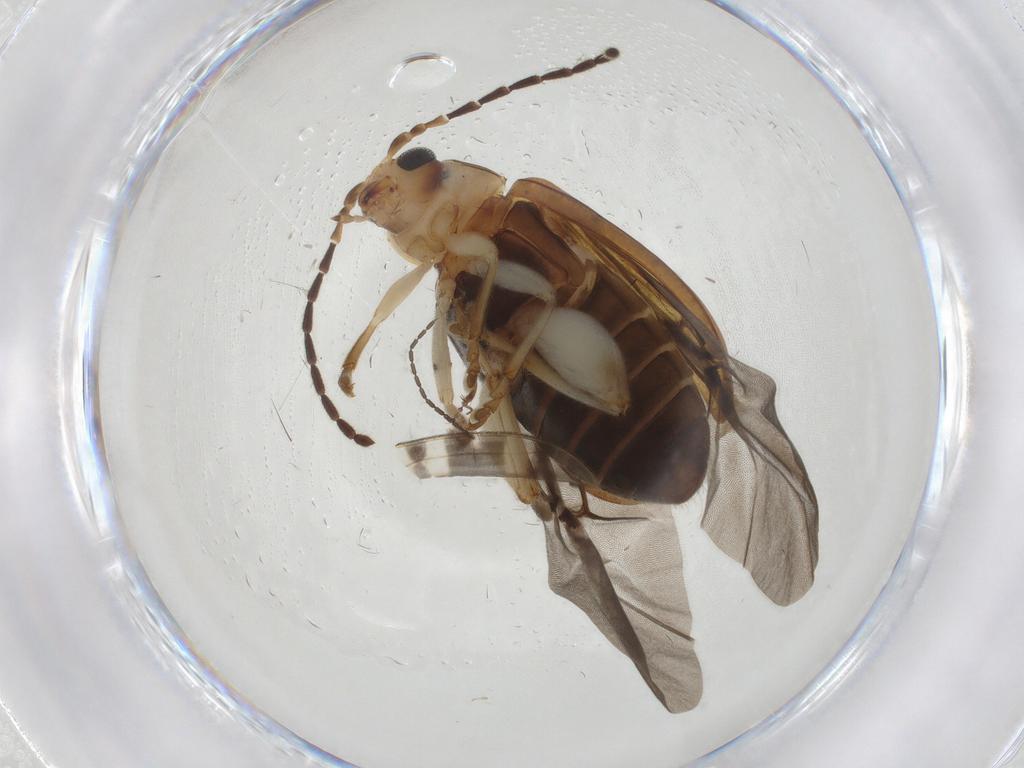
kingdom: Animalia
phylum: Arthropoda
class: Insecta
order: Coleoptera
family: Chrysomelidae
